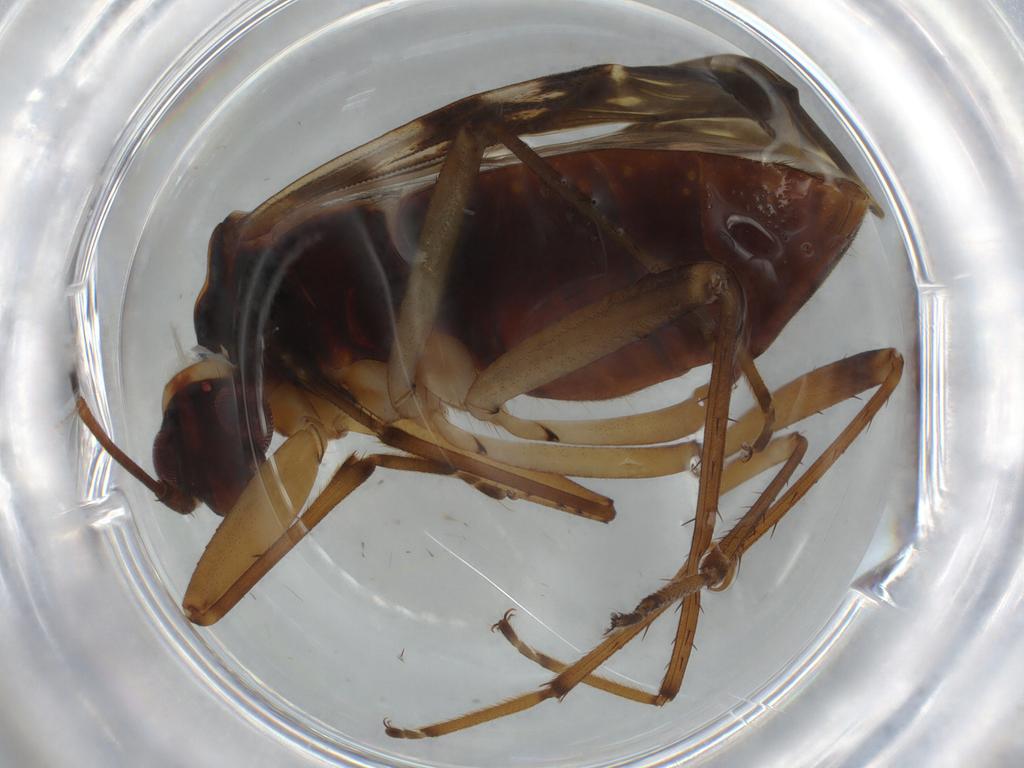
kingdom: Animalia
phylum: Arthropoda
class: Insecta
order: Hemiptera
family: Rhyparochromidae
